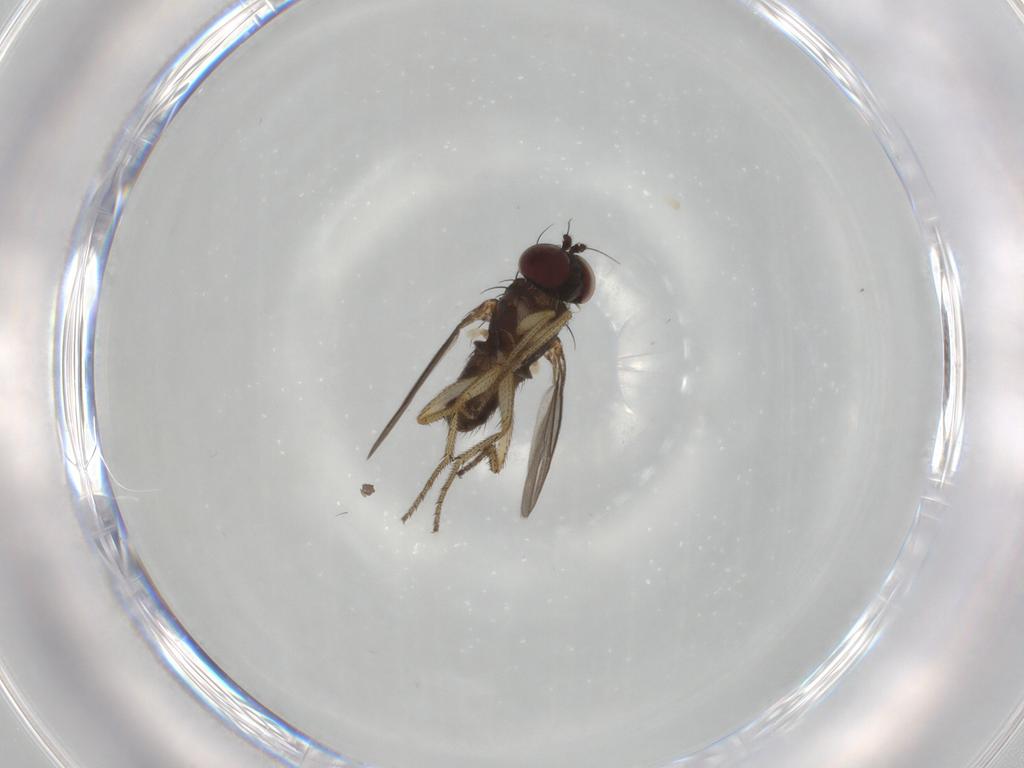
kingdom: Animalia
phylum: Arthropoda
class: Insecta
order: Diptera
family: Dolichopodidae
